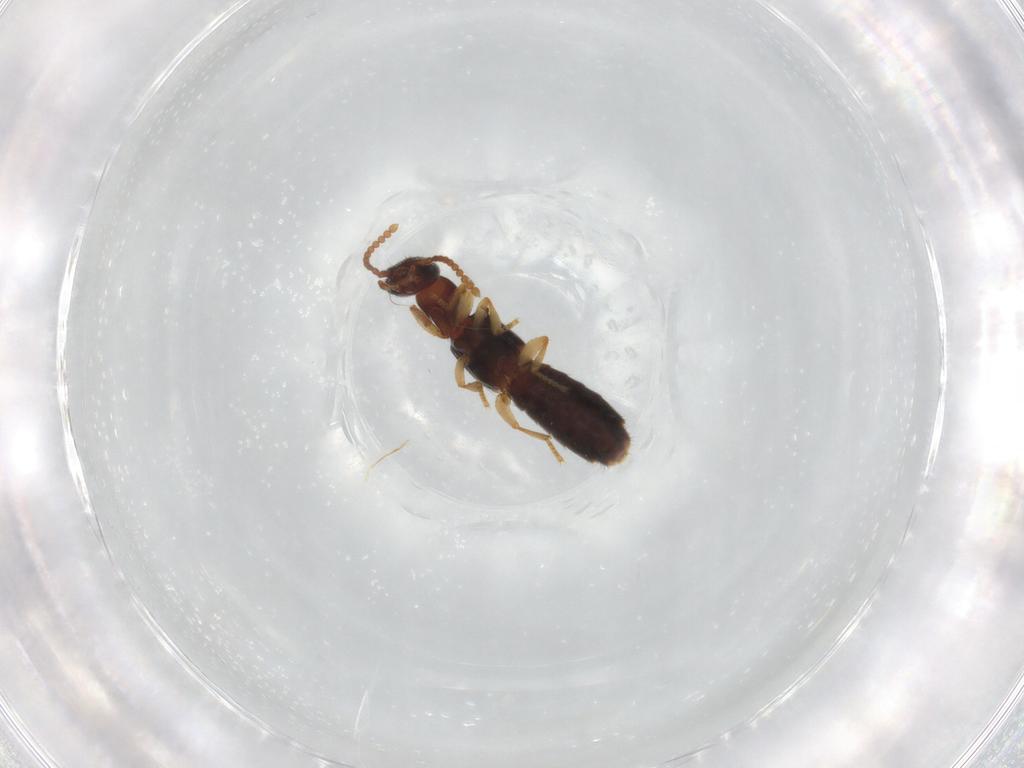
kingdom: Animalia
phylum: Arthropoda
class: Insecta
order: Coleoptera
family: Staphylinidae
